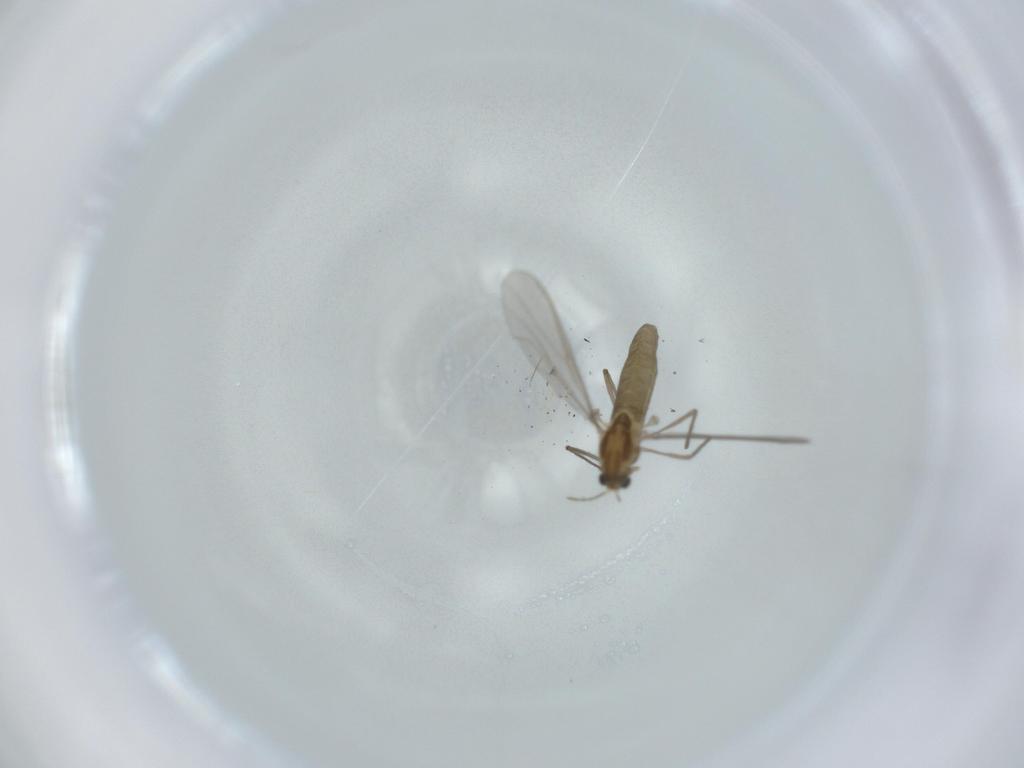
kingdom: Animalia
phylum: Arthropoda
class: Insecta
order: Diptera
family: Chironomidae
